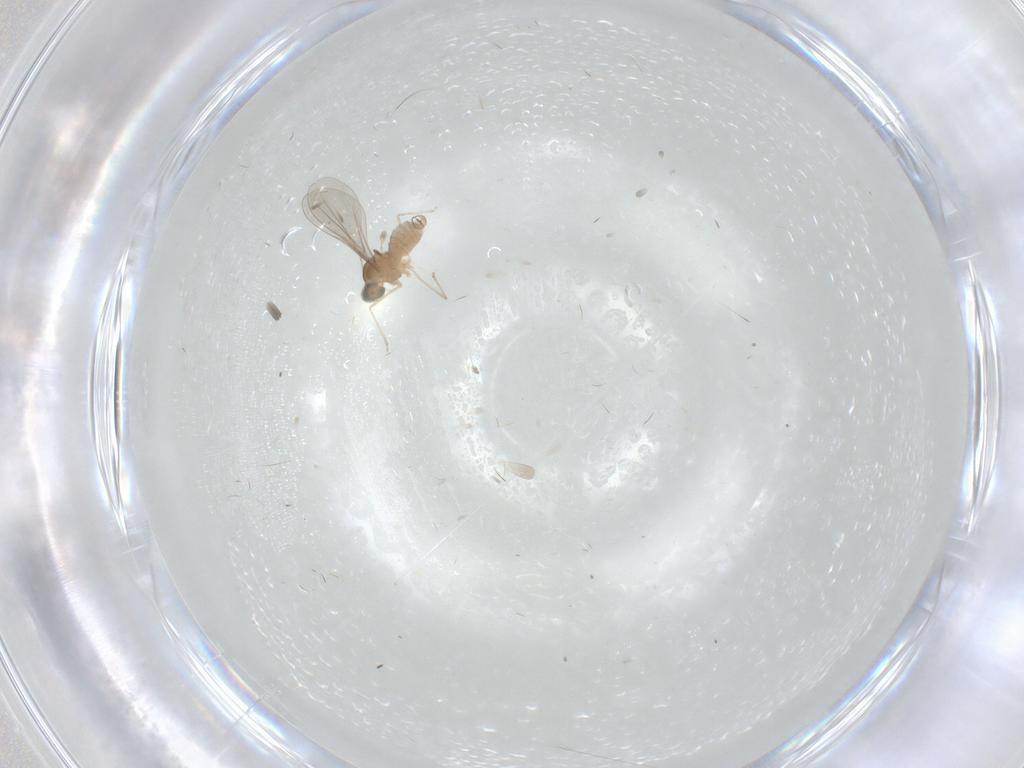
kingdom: Animalia
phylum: Arthropoda
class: Insecta
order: Diptera
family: Cecidomyiidae
